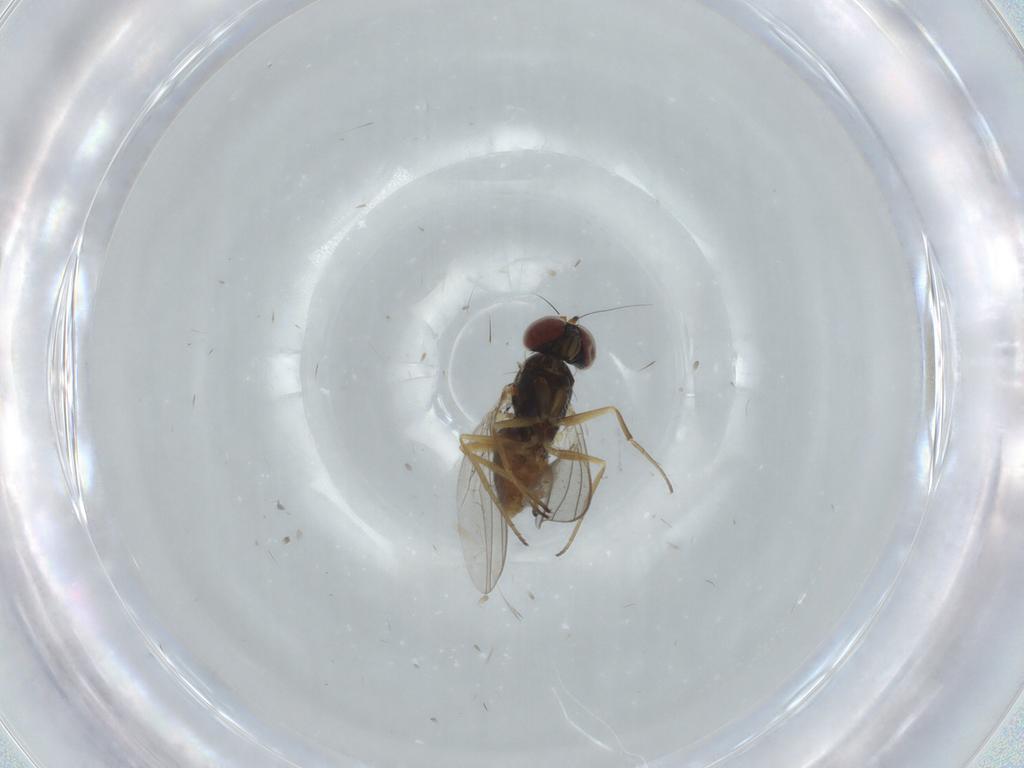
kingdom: Animalia
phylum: Arthropoda
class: Insecta
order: Diptera
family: Dolichopodidae
